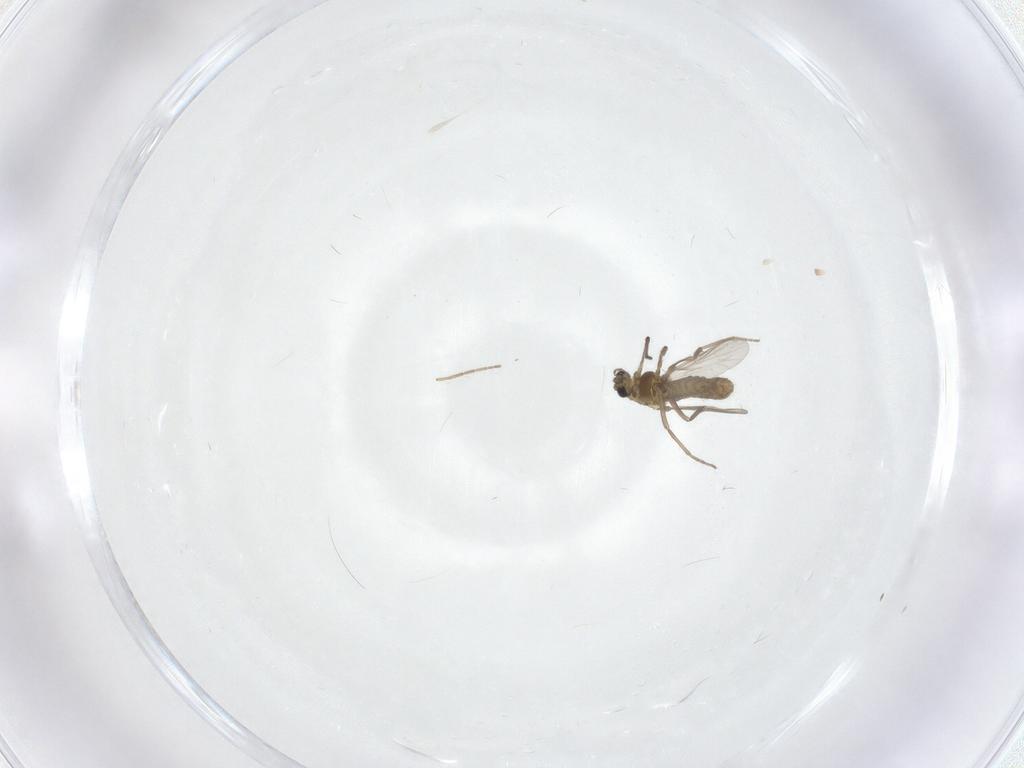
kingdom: Animalia
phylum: Arthropoda
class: Insecta
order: Diptera
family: Chironomidae
